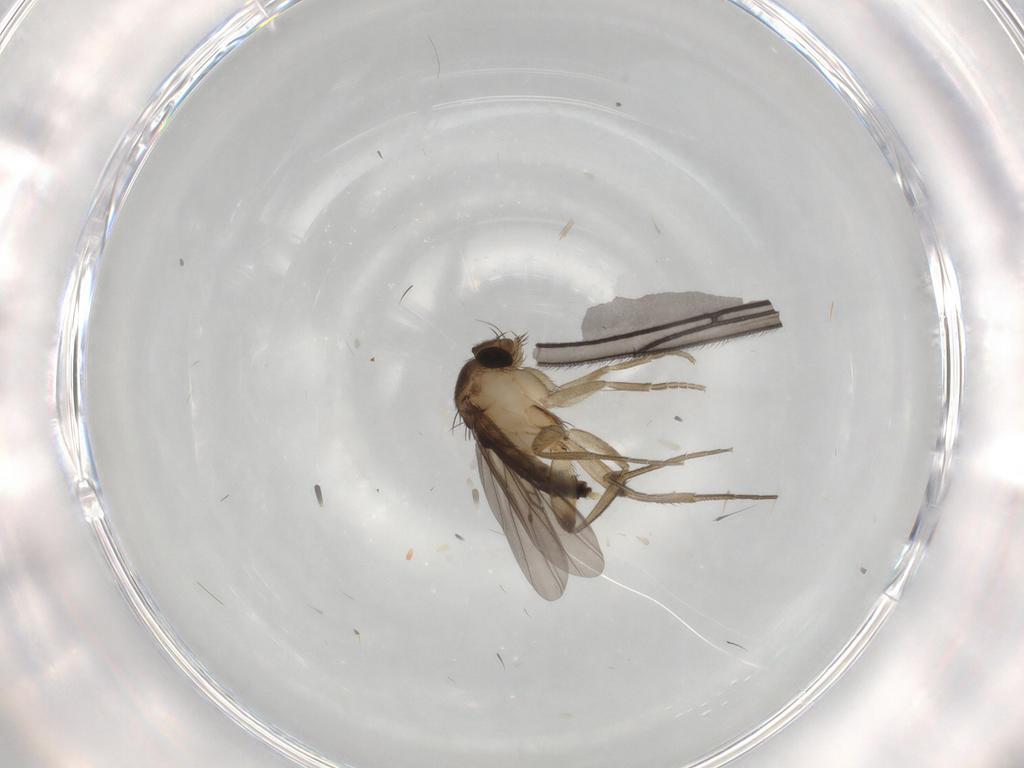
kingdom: Animalia
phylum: Arthropoda
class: Insecta
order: Diptera
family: Phoridae
